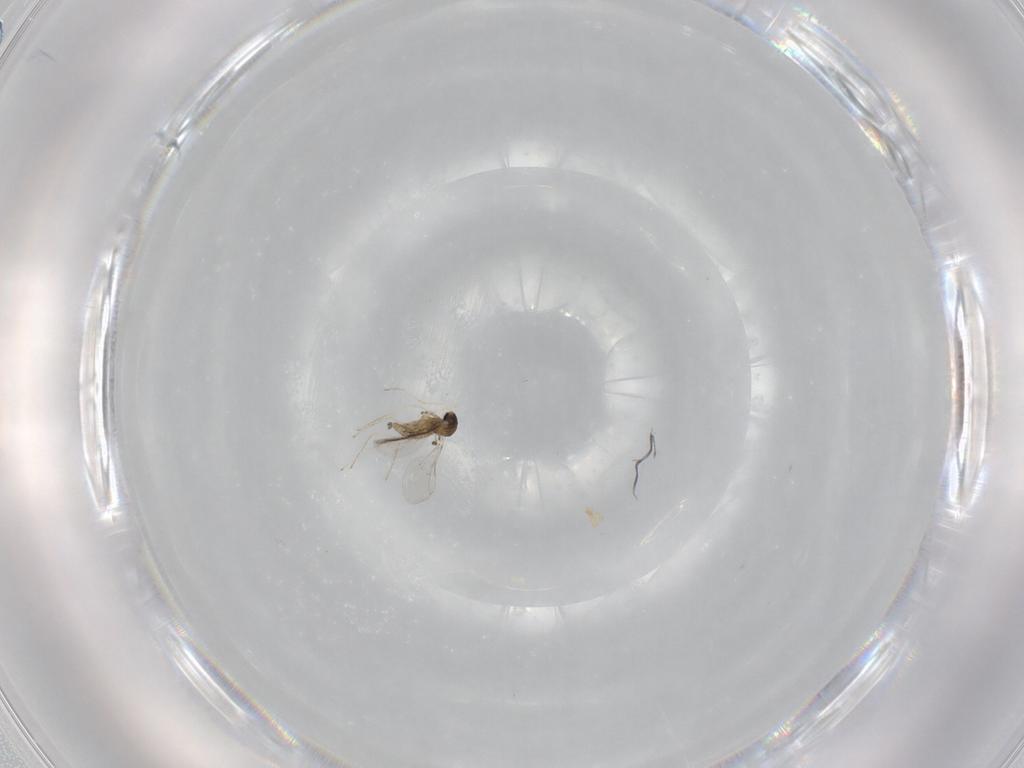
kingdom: Animalia
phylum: Arthropoda
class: Insecta
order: Diptera
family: Cecidomyiidae
